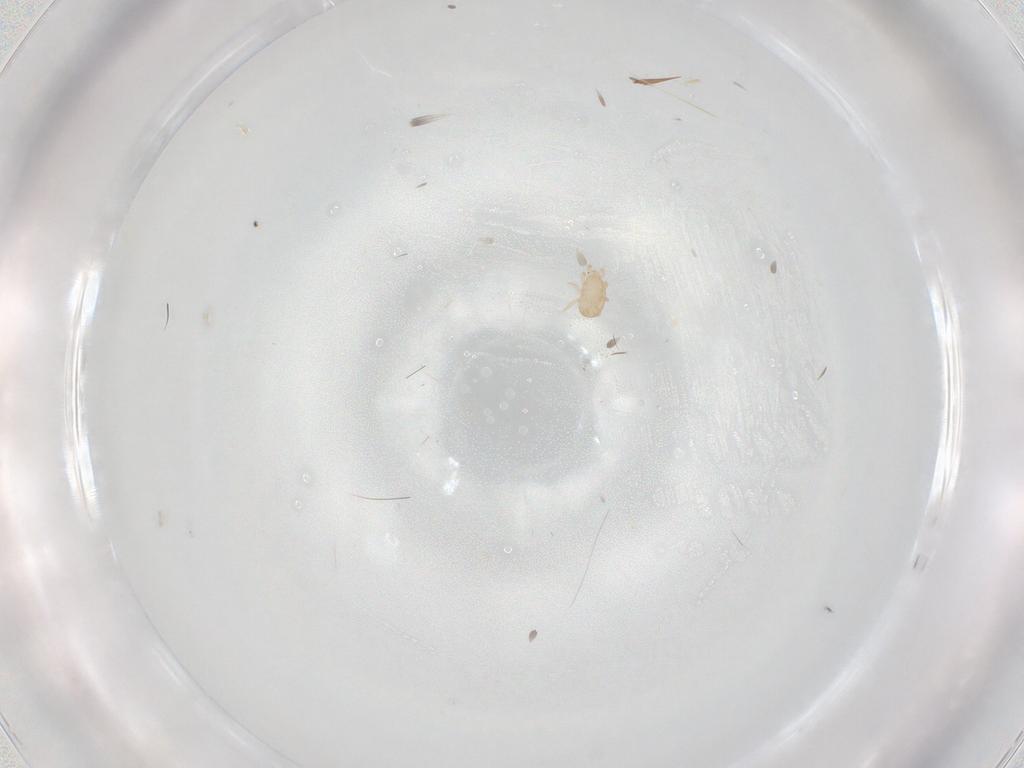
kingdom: Animalia
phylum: Arthropoda
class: Arachnida
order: Mesostigmata
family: Ascidae
